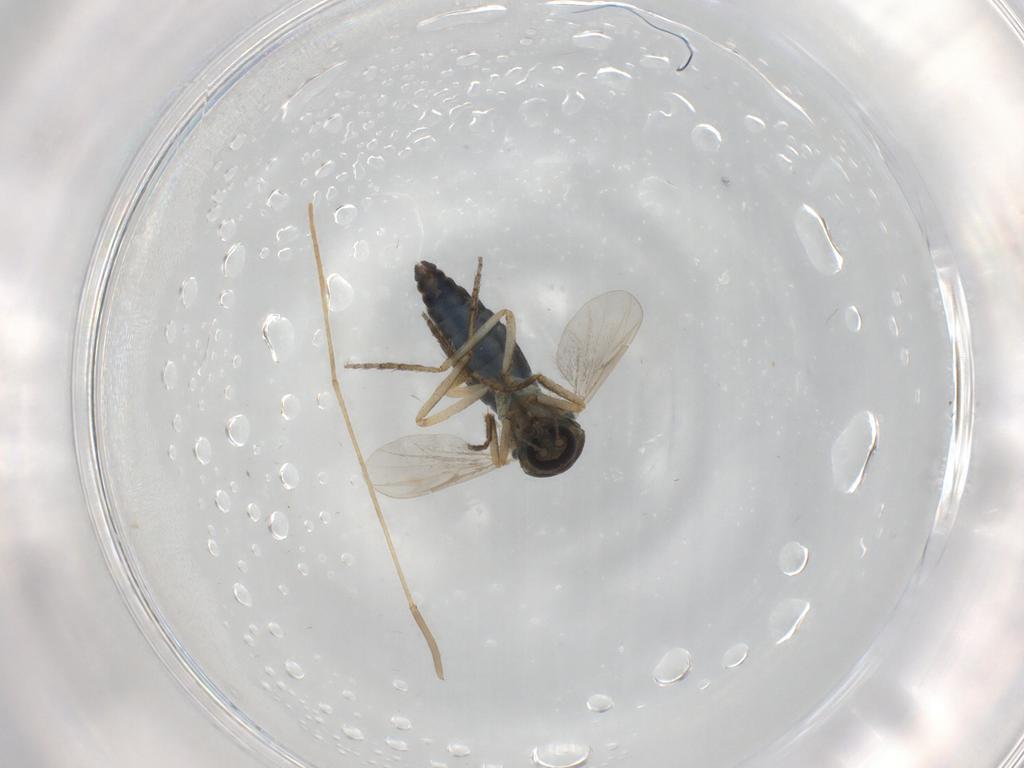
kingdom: Animalia
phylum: Arthropoda
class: Insecta
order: Diptera
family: Ceratopogonidae
